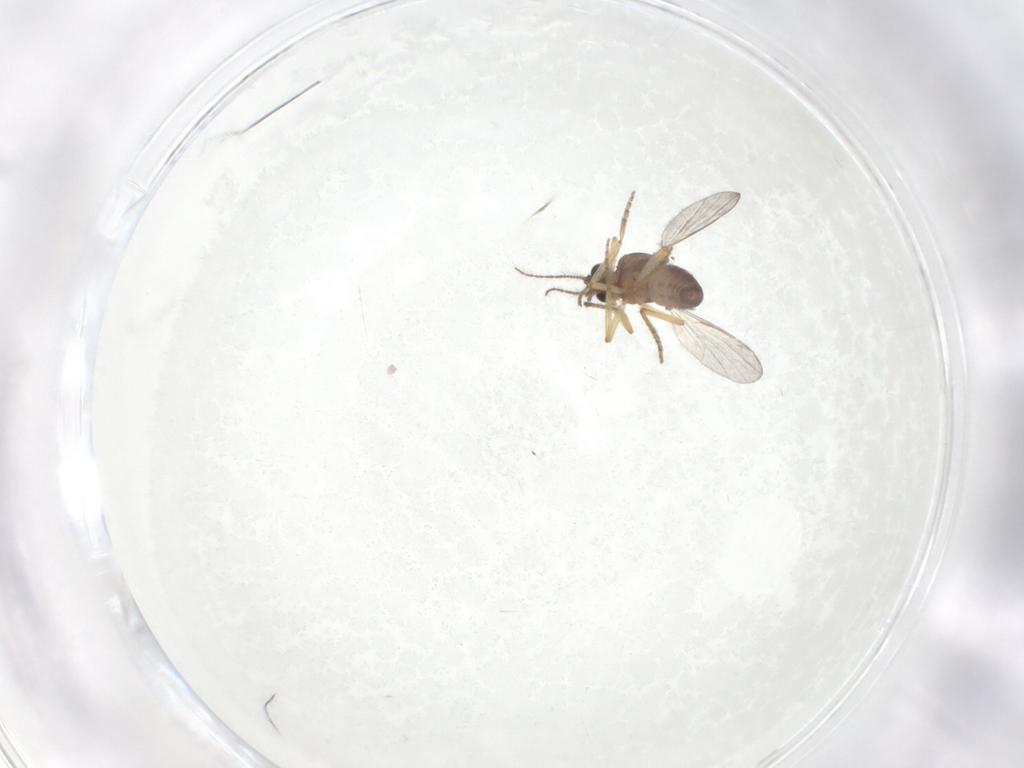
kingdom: Animalia
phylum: Arthropoda
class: Insecta
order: Diptera
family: Ceratopogonidae
